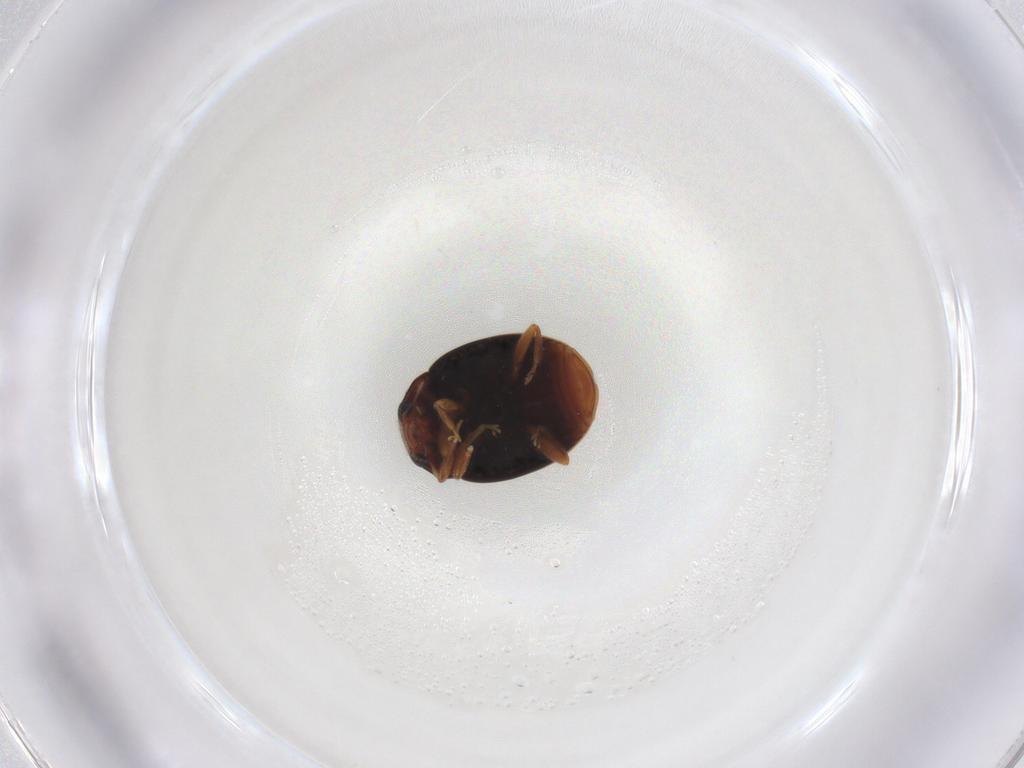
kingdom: Animalia
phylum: Arthropoda
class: Insecta
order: Coleoptera
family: Coccinellidae
